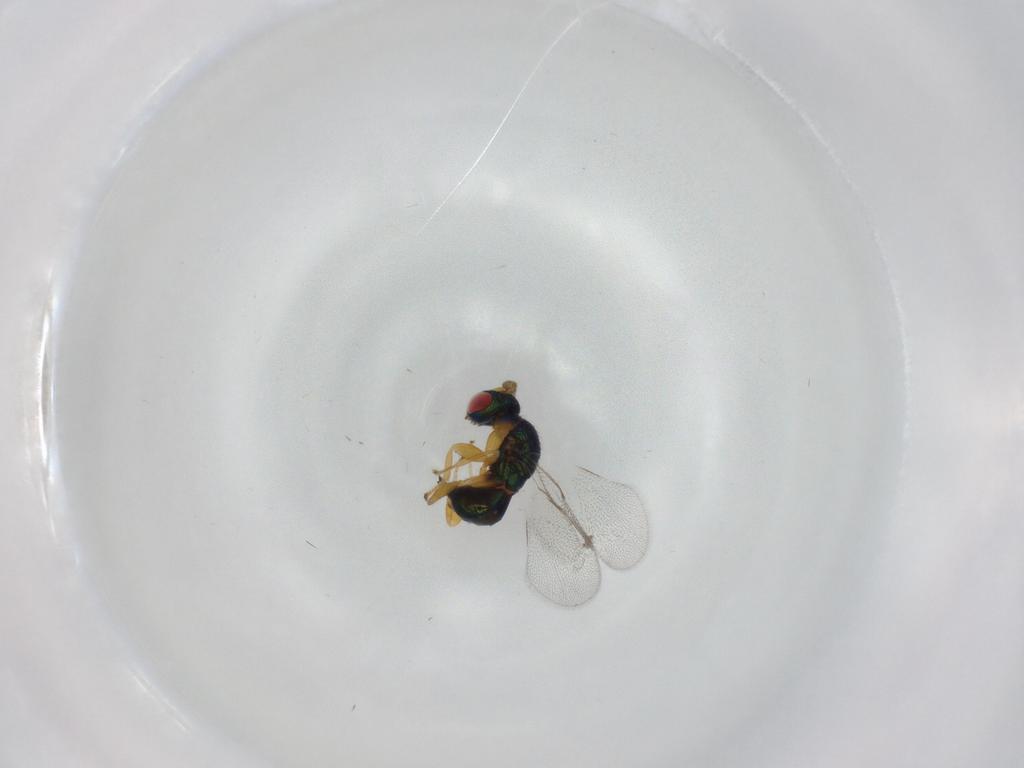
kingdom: Animalia
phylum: Arthropoda
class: Insecta
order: Hymenoptera
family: Torymidae
